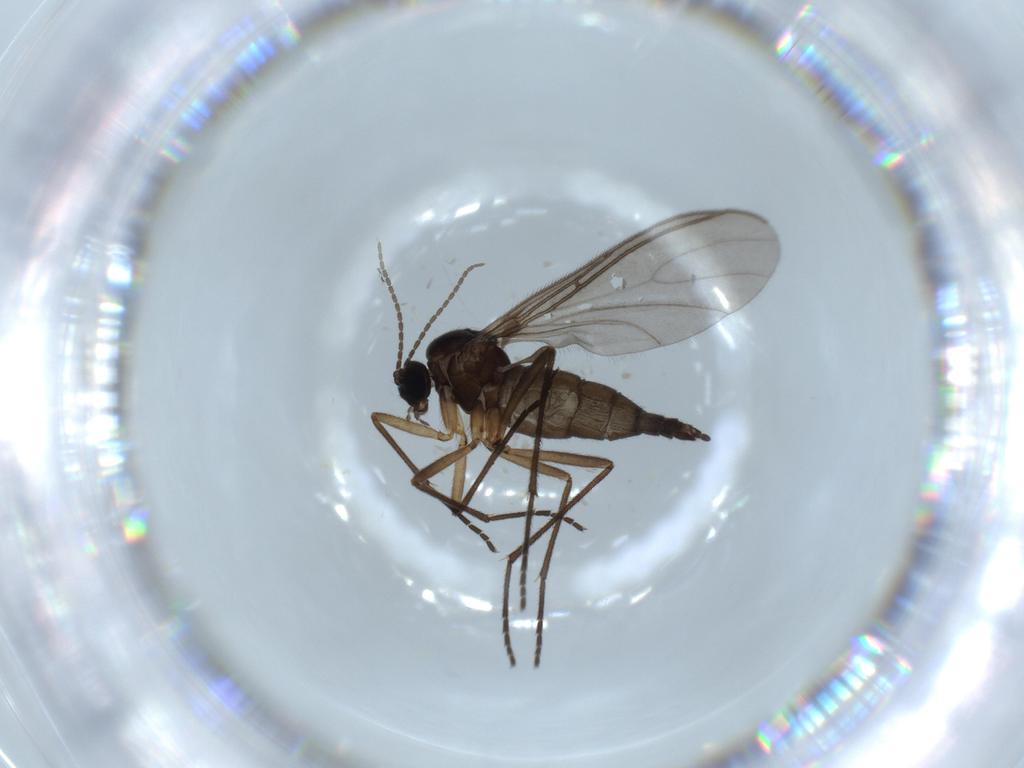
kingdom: Animalia
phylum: Arthropoda
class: Insecta
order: Diptera
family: Sciaridae
